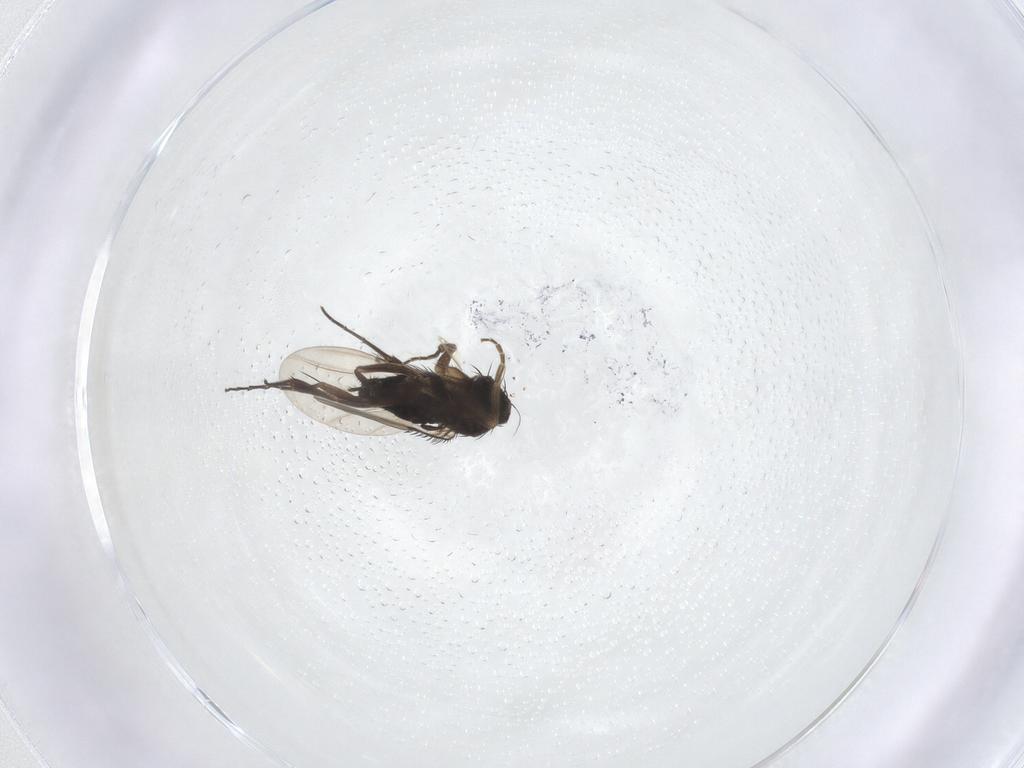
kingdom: Animalia
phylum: Arthropoda
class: Insecta
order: Diptera
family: Phoridae
